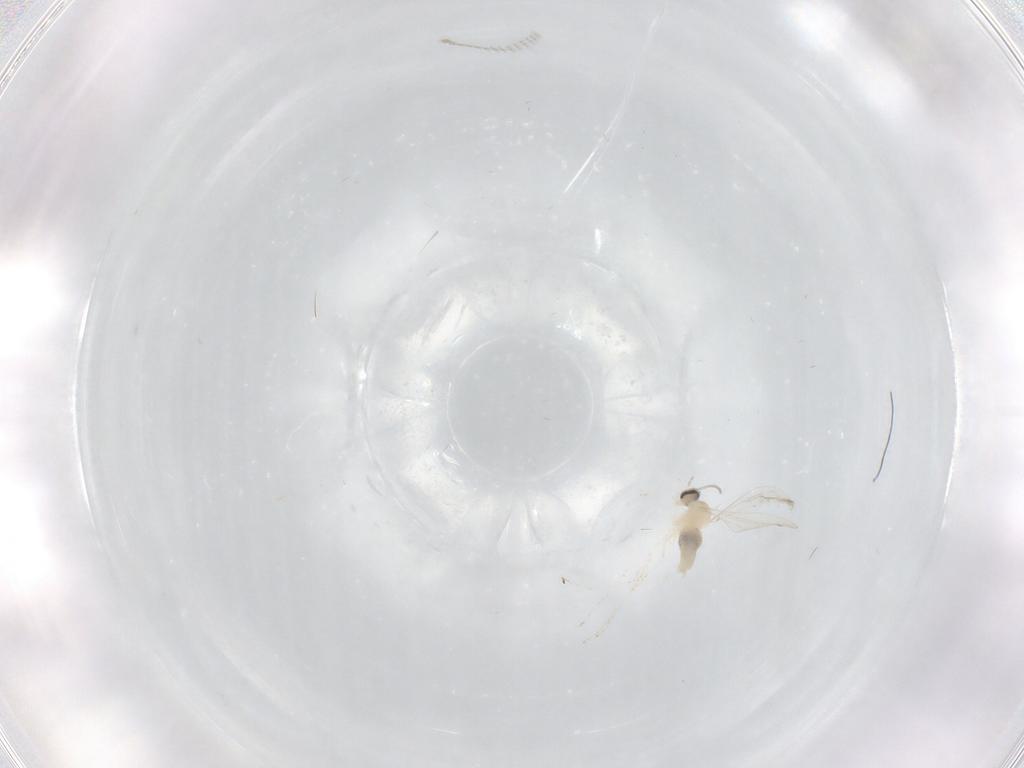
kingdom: Animalia
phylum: Arthropoda
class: Insecta
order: Diptera
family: Cecidomyiidae
